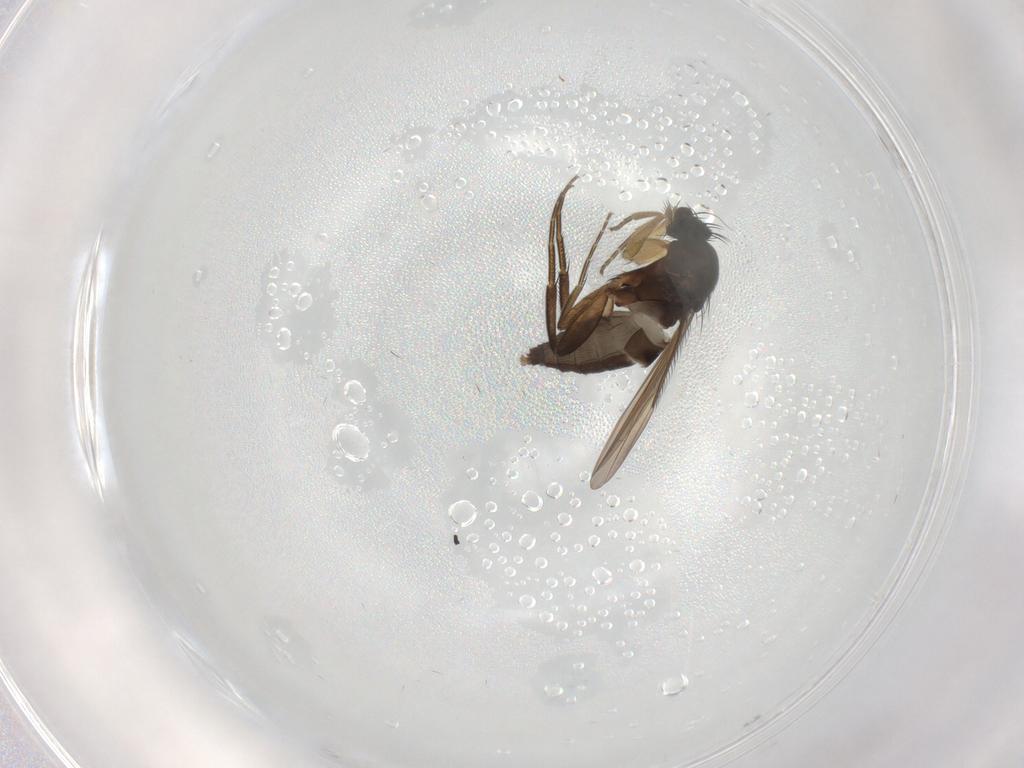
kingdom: Animalia
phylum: Arthropoda
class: Insecta
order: Diptera
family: Phoridae
